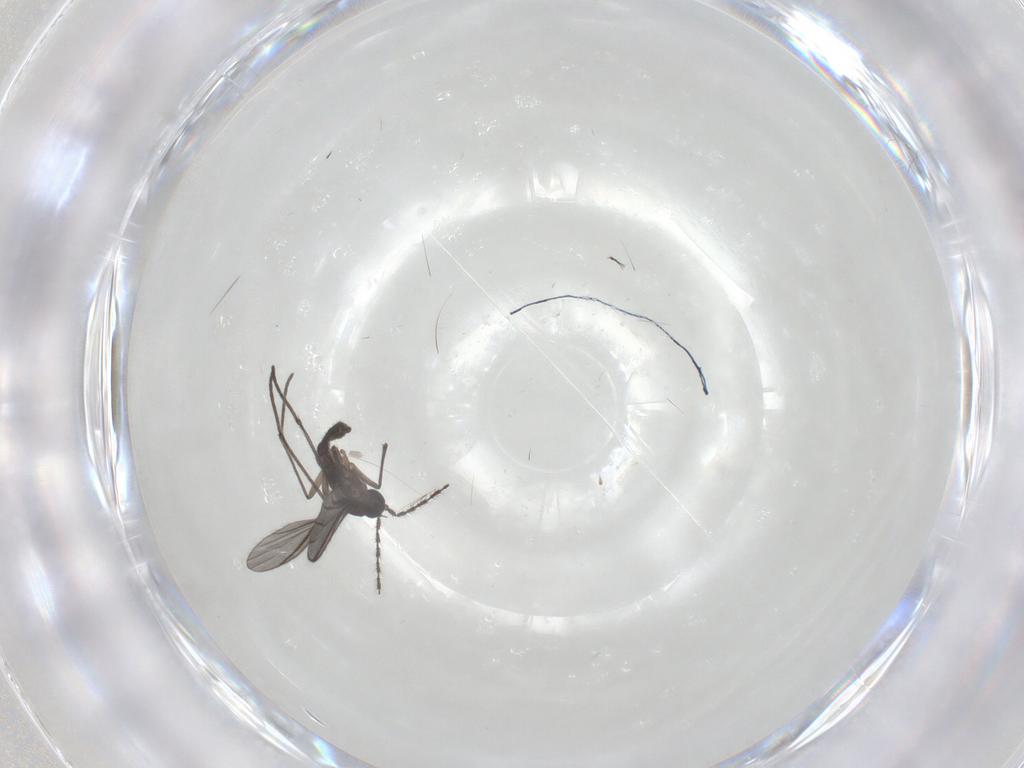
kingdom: Animalia
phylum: Arthropoda
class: Insecta
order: Diptera
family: Sciaridae
